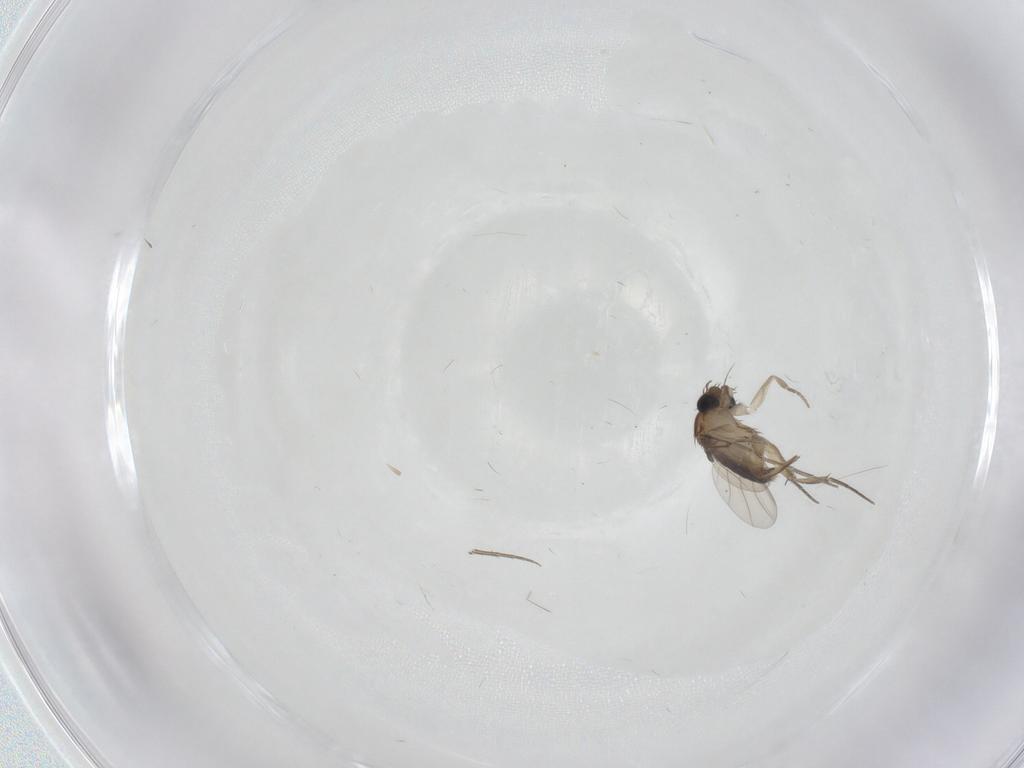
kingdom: Animalia
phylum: Arthropoda
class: Insecta
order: Diptera
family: Phoridae
